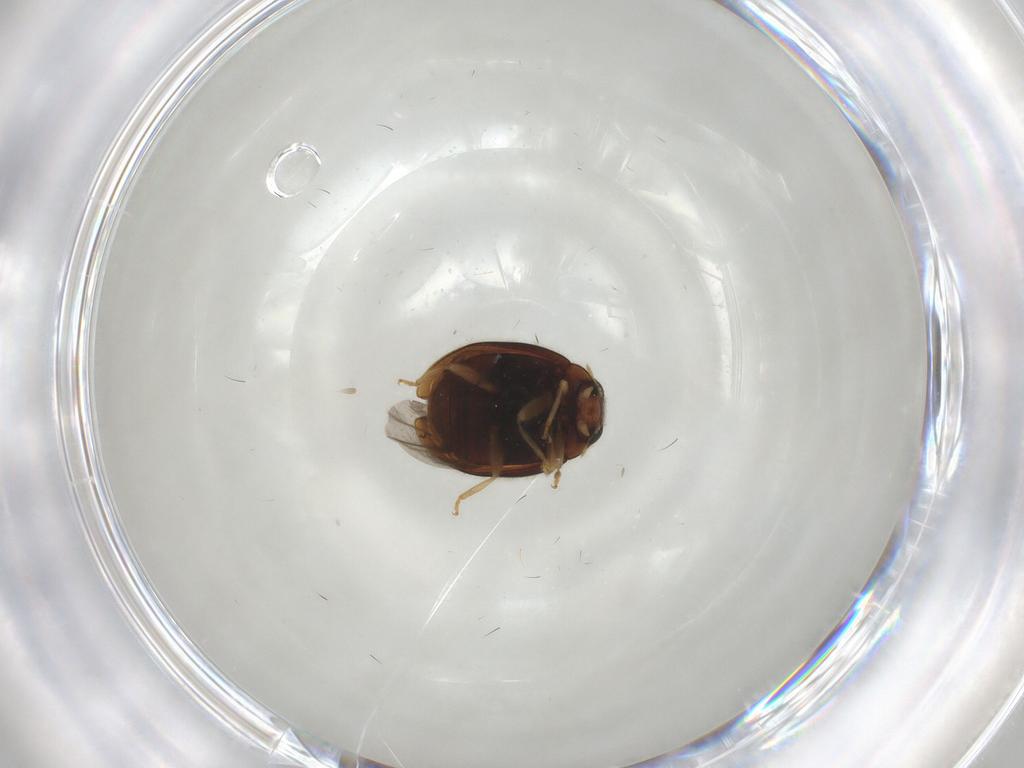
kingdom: Animalia
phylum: Arthropoda
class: Insecta
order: Coleoptera
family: Coccinellidae
